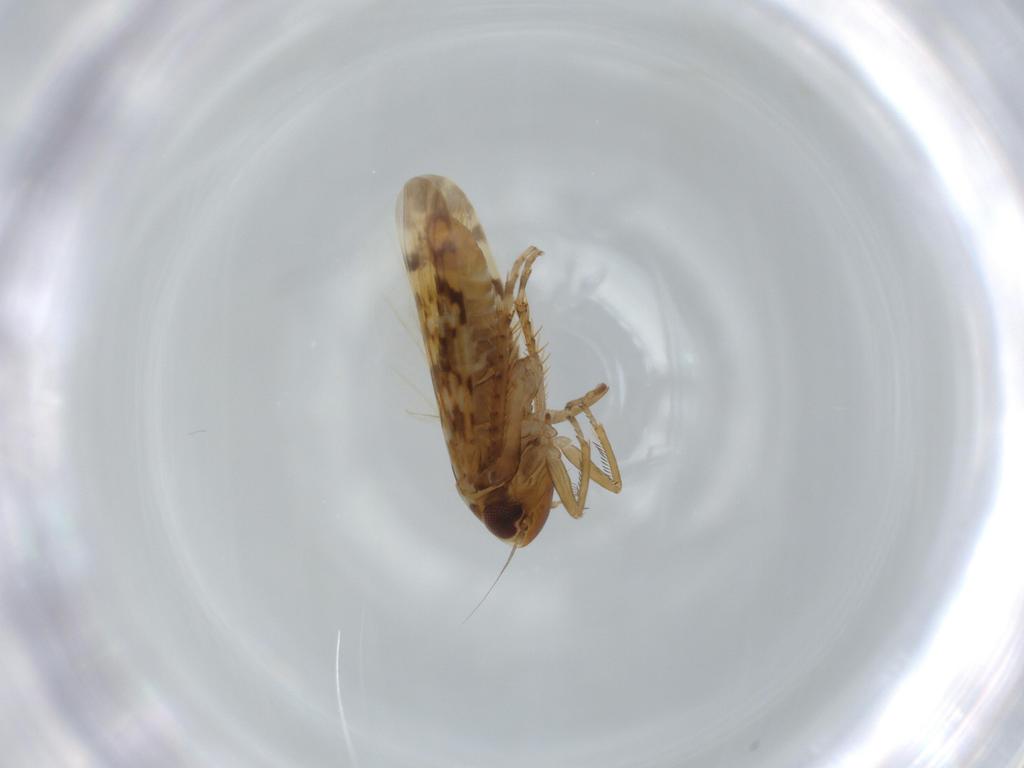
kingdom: Animalia
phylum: Arthropoda
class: Insecta
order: Hemiptera
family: Cicadellidae
